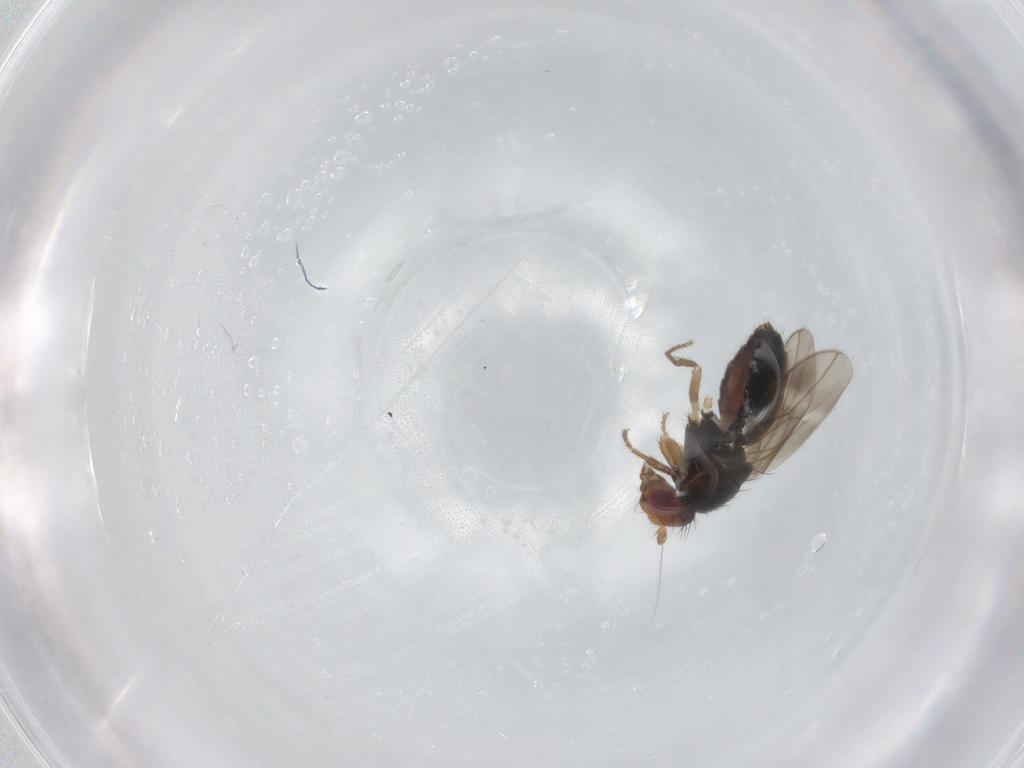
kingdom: Animalia
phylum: Arthropoda
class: Insecta
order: Diptera
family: Sphaeroceridae
